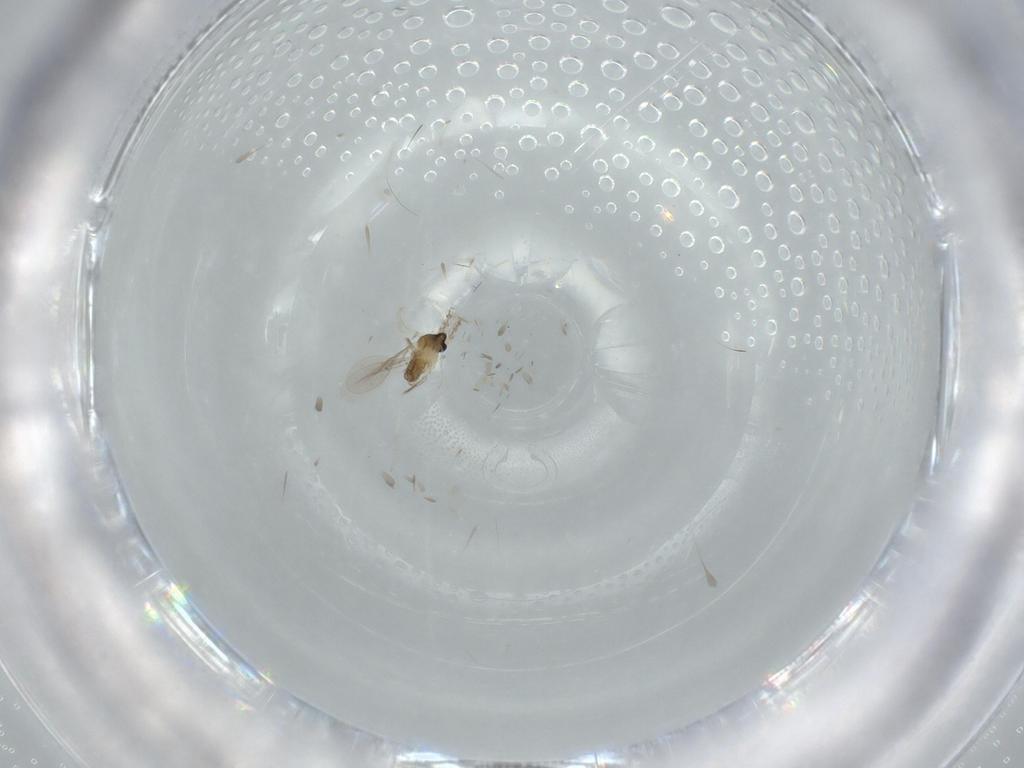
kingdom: Animalia
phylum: Arthropoda
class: Insecta
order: Diptera
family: Cecidomyiidae
